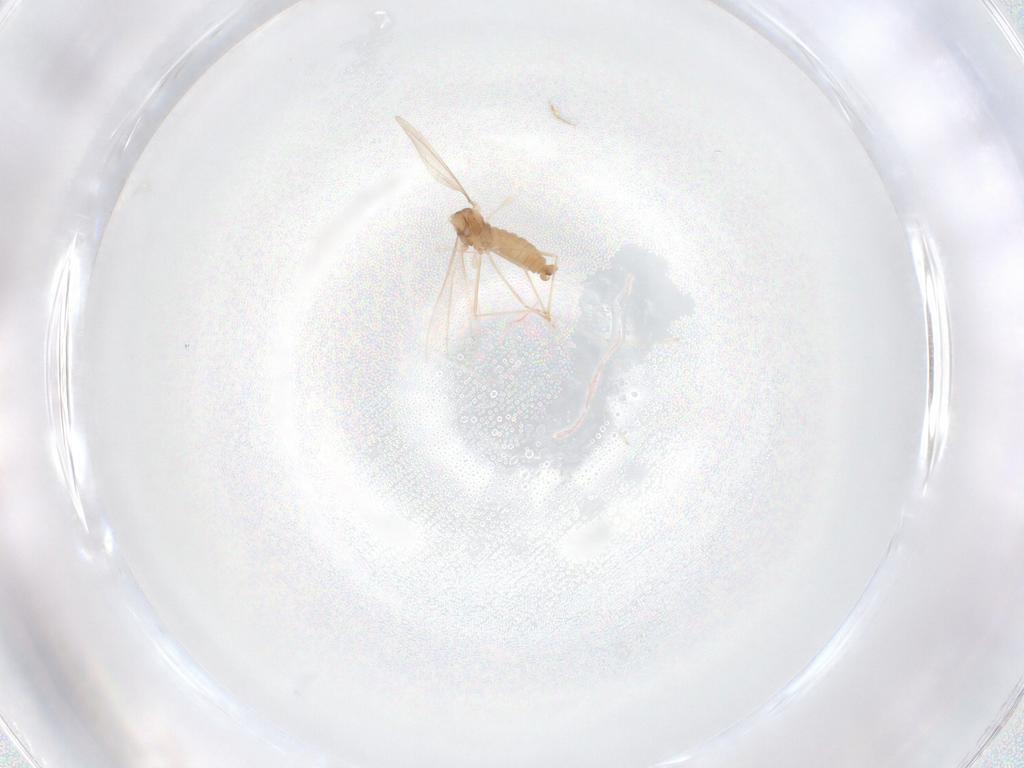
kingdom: Animalia
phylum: Arthropoda
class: Insecta
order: Diptera
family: Cecidomyiidae
